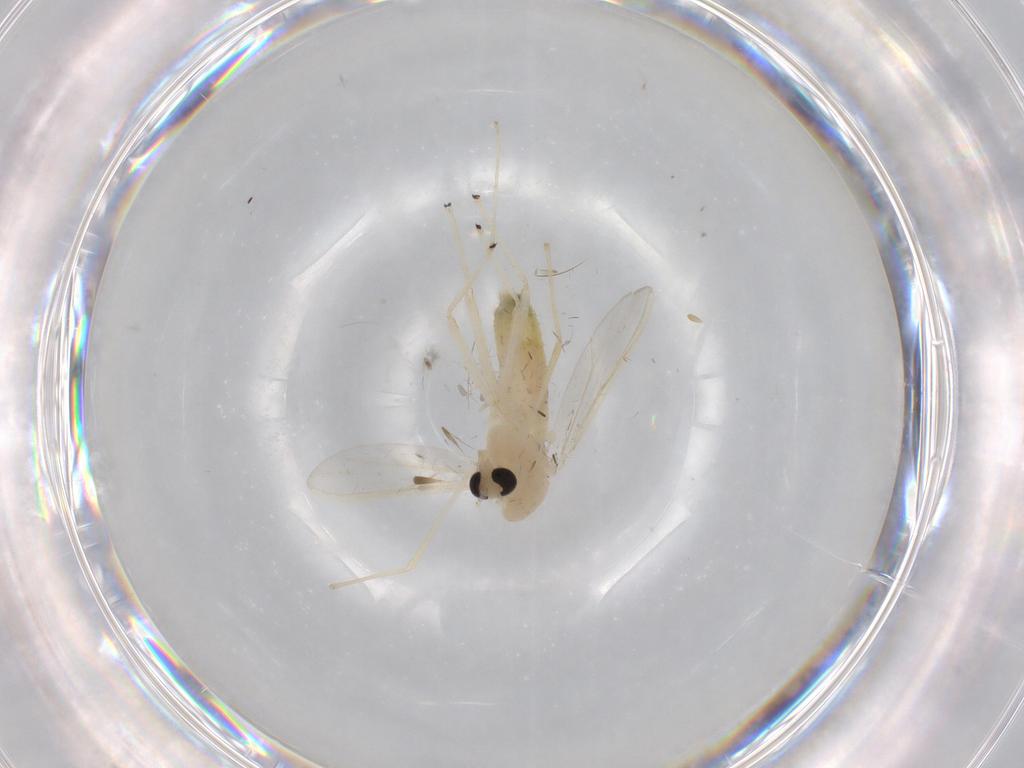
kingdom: Animalia
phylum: Arthropoda
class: Insecta
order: Diptera
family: Chironomidae
